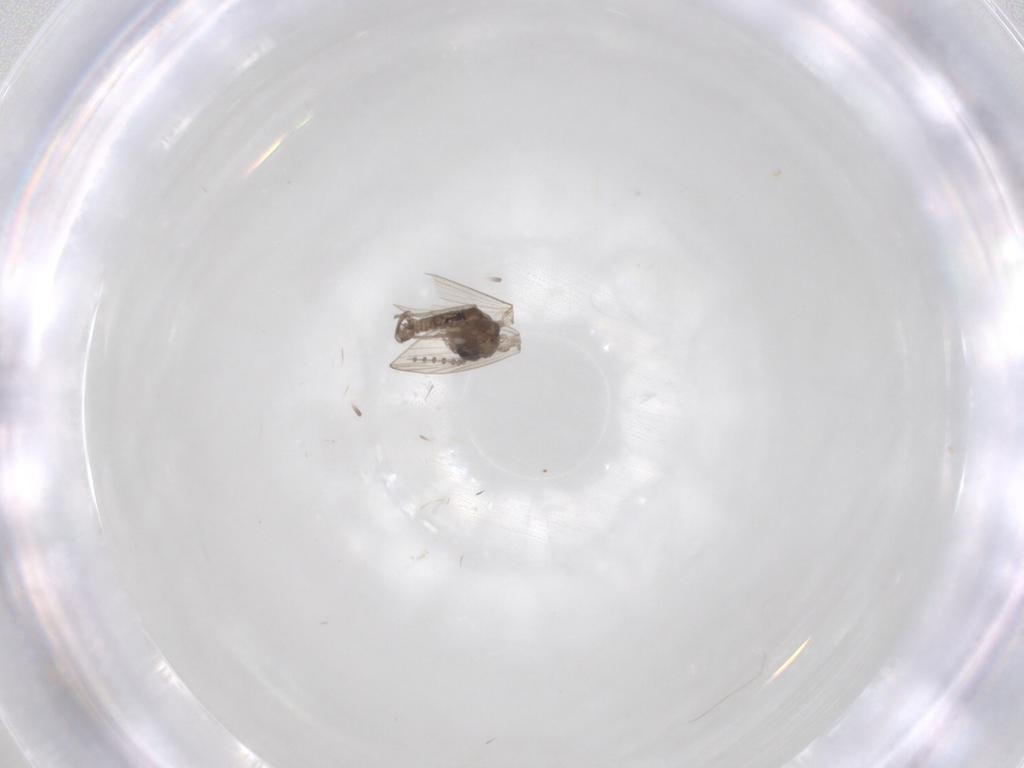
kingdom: Animalia
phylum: Arthropoda
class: Insecta
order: Diptera
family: Psychodidae
